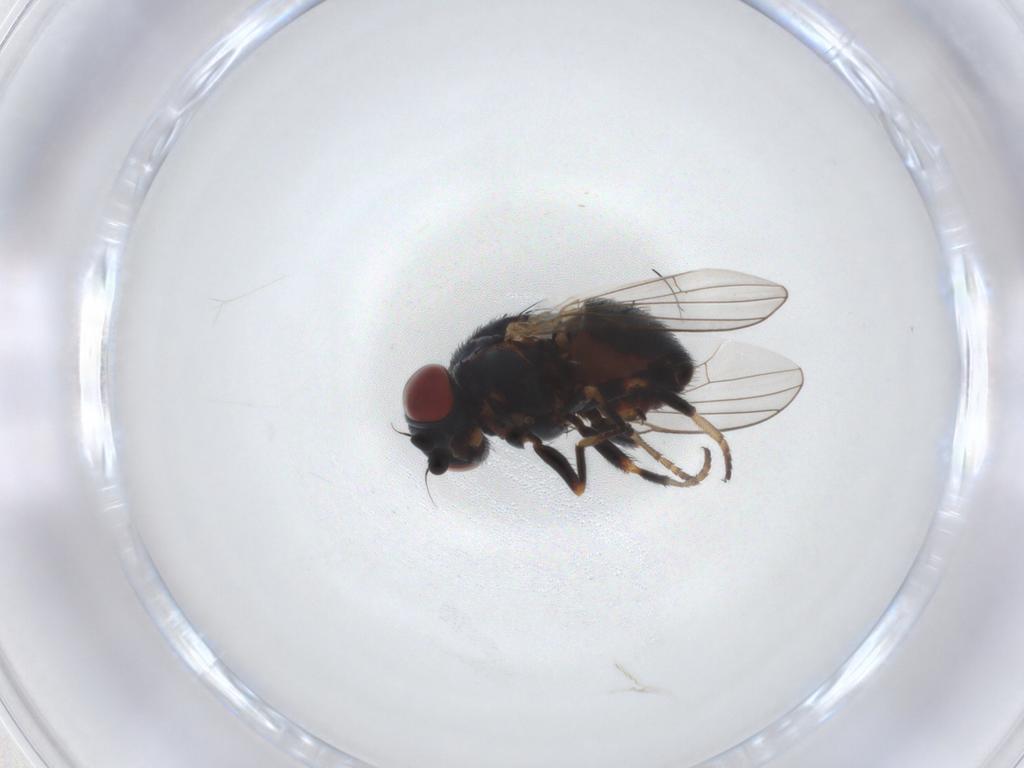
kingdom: Animalia
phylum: Arthropoda
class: Insecta
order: Diptera
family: Chamaemyiidae
